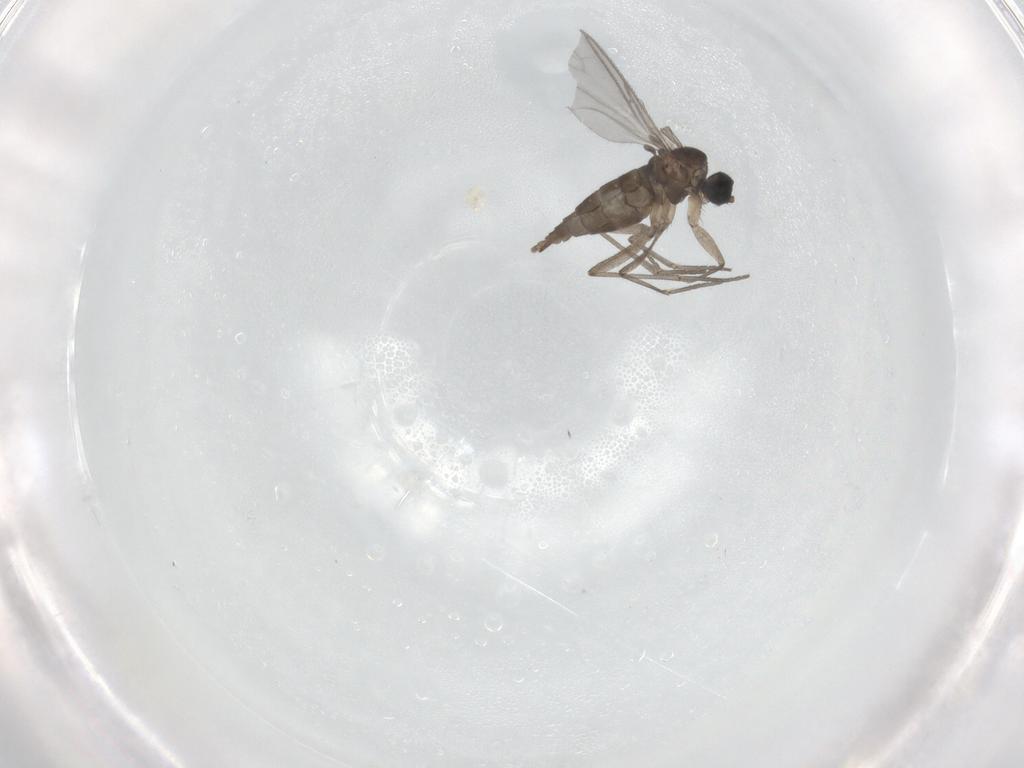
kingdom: Animalia
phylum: Arthropoda
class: Insecta
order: Diptera
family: Sciaridae
